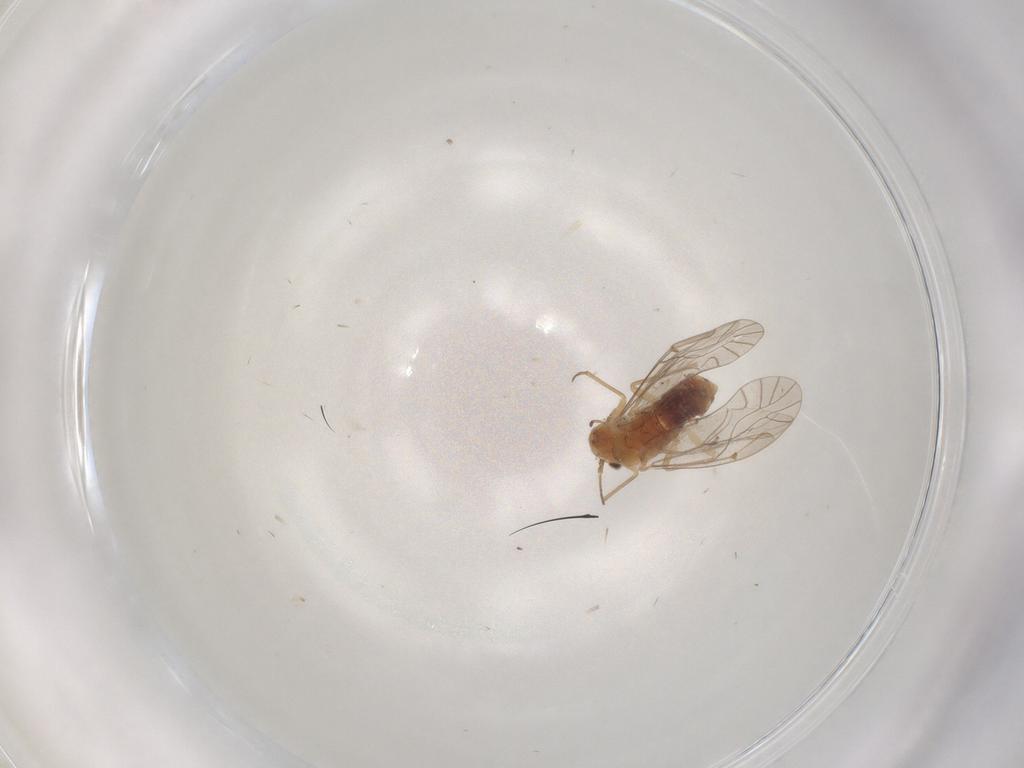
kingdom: Animalia
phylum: Arthropoda
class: Insecta
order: Psocodea
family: Lachesillidae
